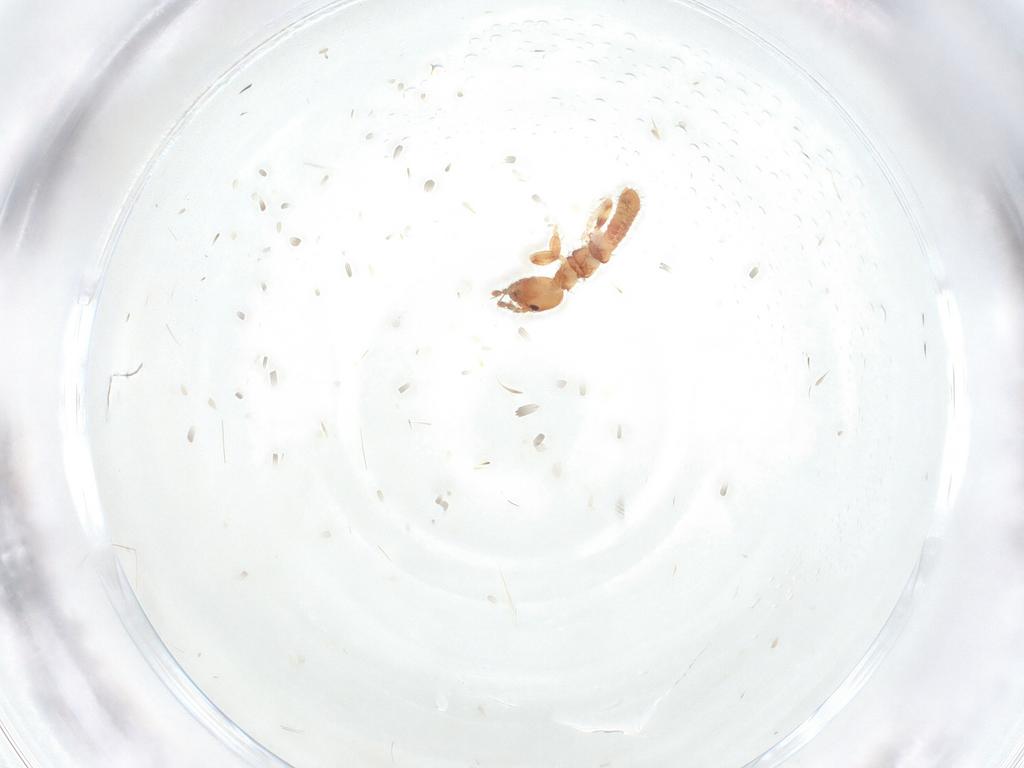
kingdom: Animalia
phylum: Arthropoda
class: Insecta
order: Embioptera
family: Anisembiidae
